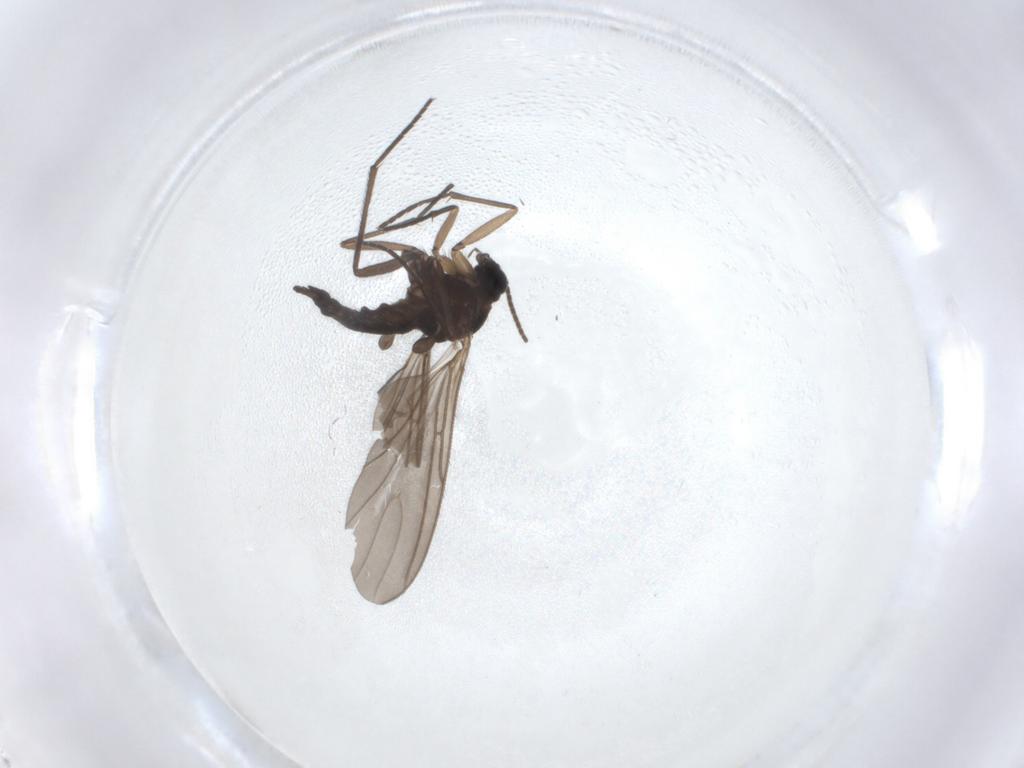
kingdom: Animalia
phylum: Arthropoda
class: Insecta
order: Diptera
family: Sciaridae
